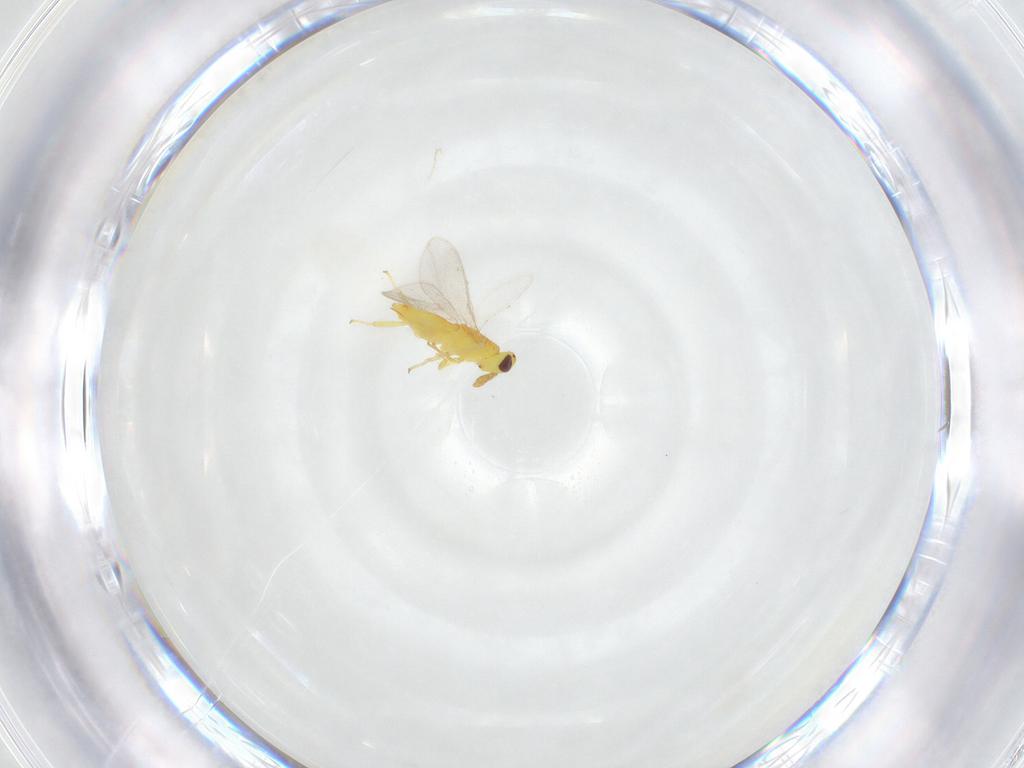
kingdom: Animalia
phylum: Arthropoda
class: Insecta
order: Hymenoptera
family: Aphelinidae
